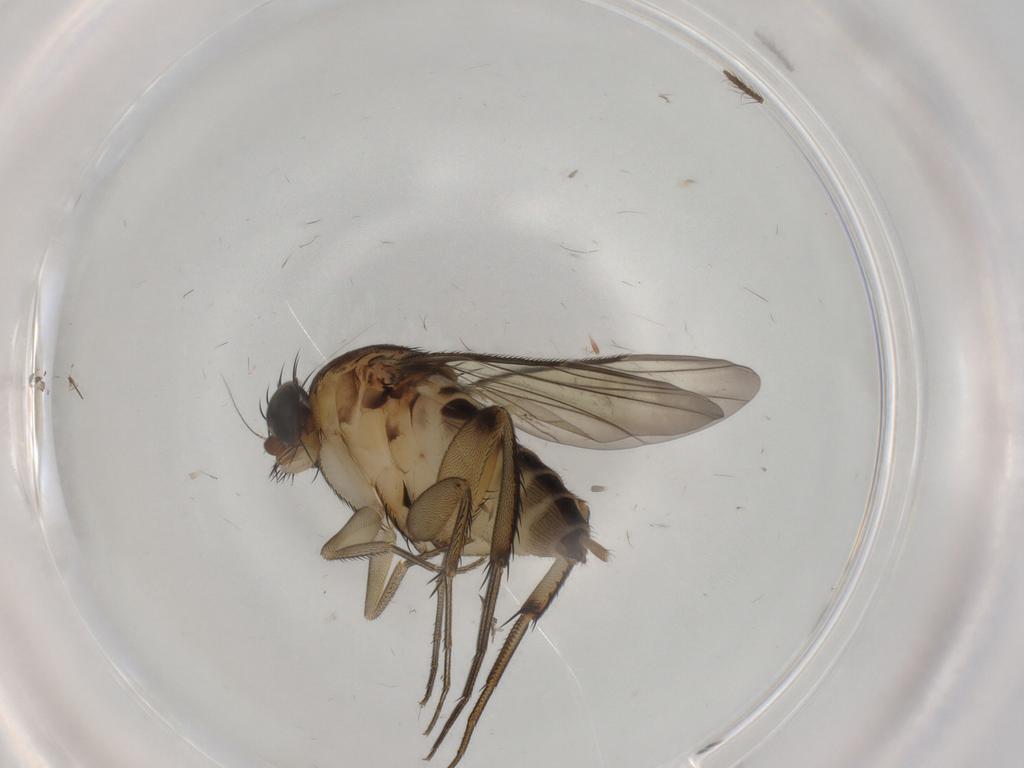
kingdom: Animalia
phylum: Arthropoda
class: Insecta
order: Diptera
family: Phoridae
